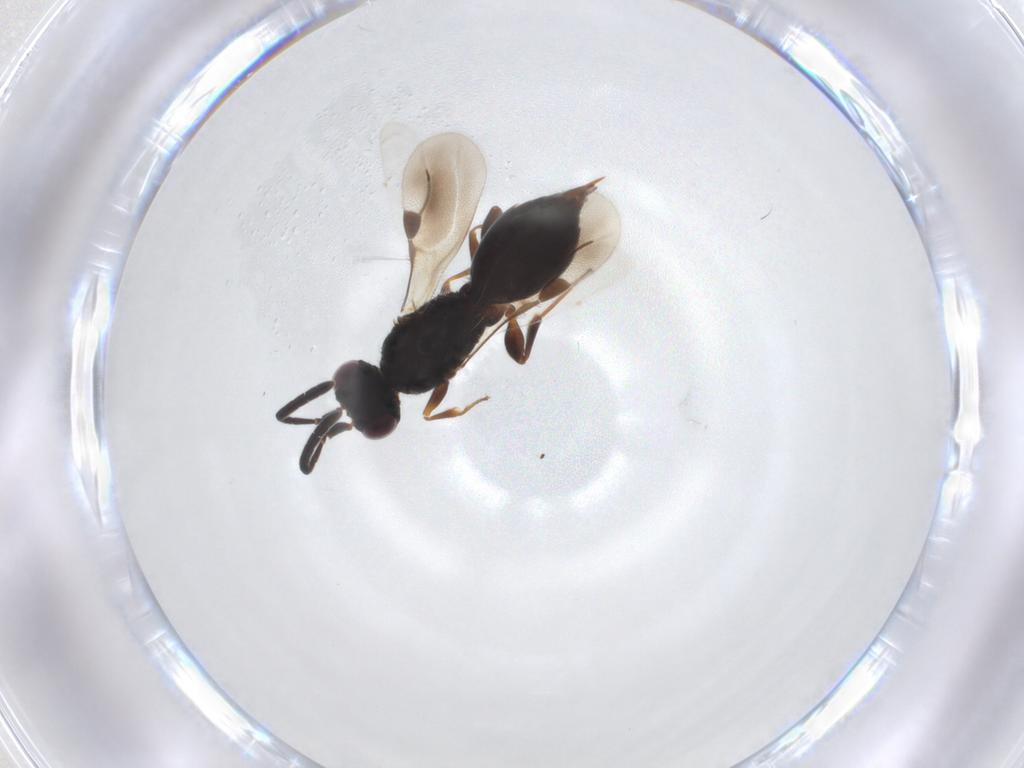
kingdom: Animalia
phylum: Arthropoda
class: Insecta
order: Hymenoptera
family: Megaspilidae
